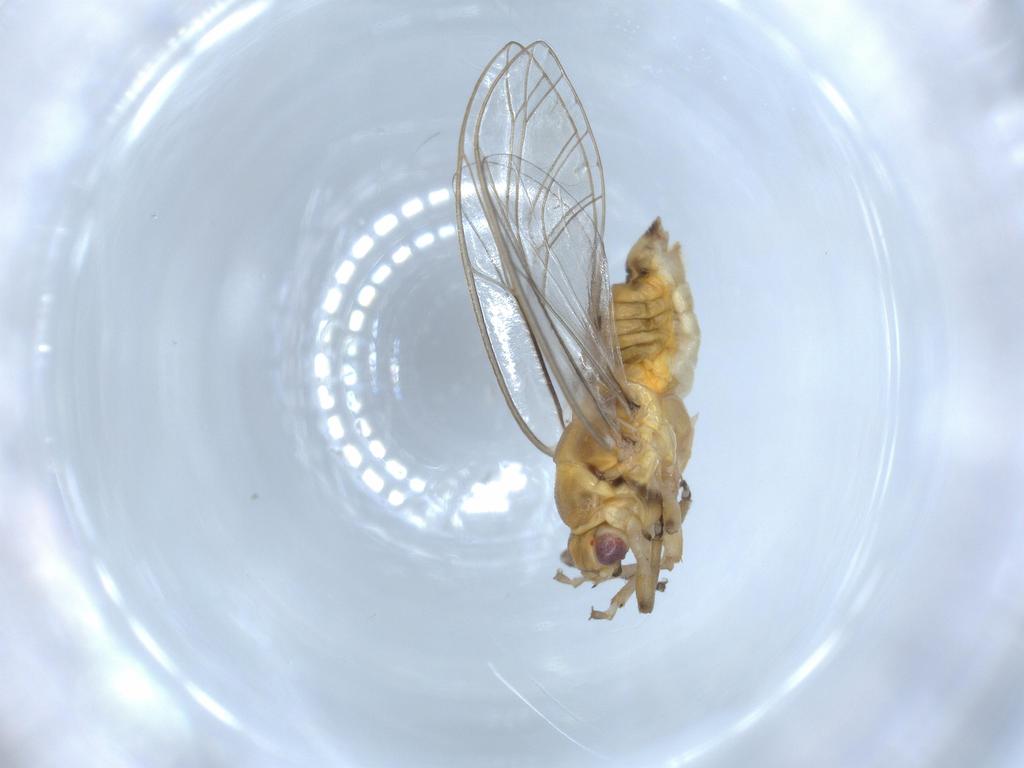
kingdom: Animalia
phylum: Arthropoda
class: Insecta
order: Hemiptera
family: Psylloidea_incertae_sedis
